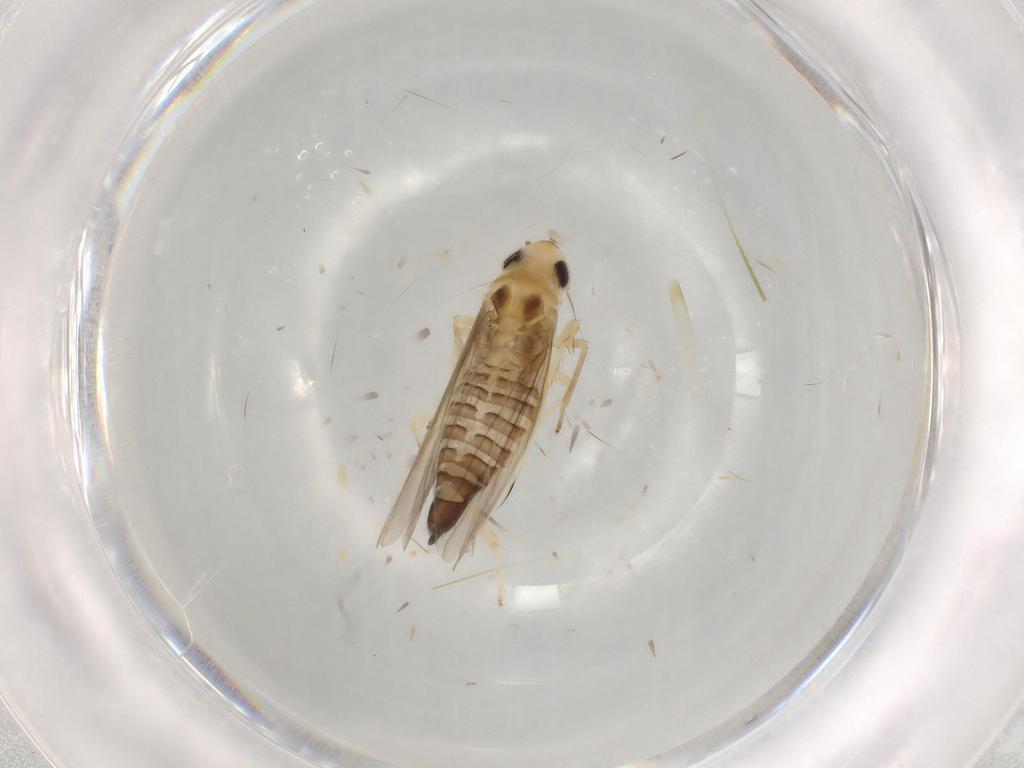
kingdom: Animalia
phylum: Arthropoda
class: Insecta
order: Hemiptera
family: Cicadellidae
